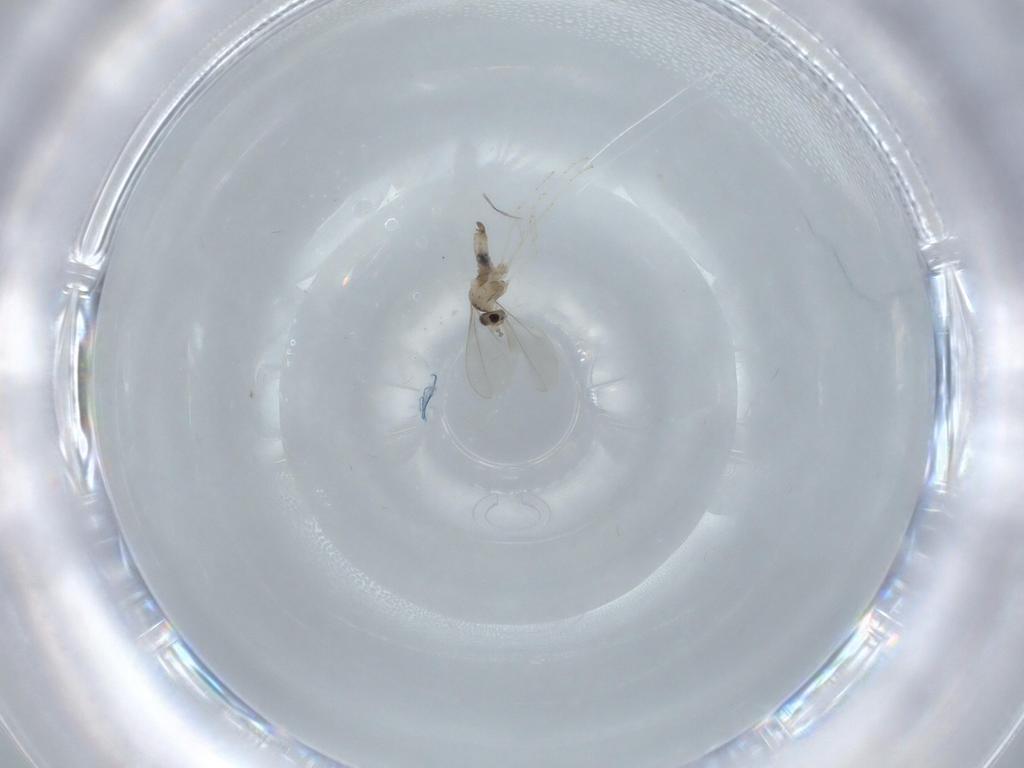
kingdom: Animalia
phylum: Arthropoda
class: Insecta
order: Diptera
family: Cecidomyiidae
